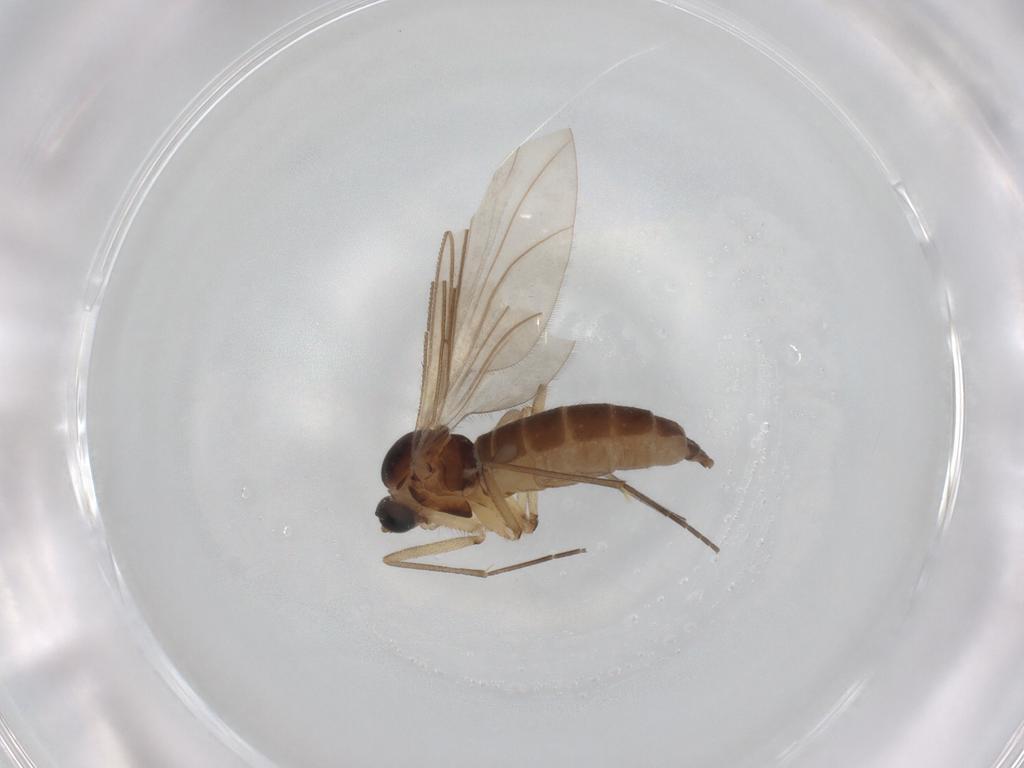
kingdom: Animalia
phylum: Arthropoda
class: Insecta
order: Diptera
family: Sciaridae
